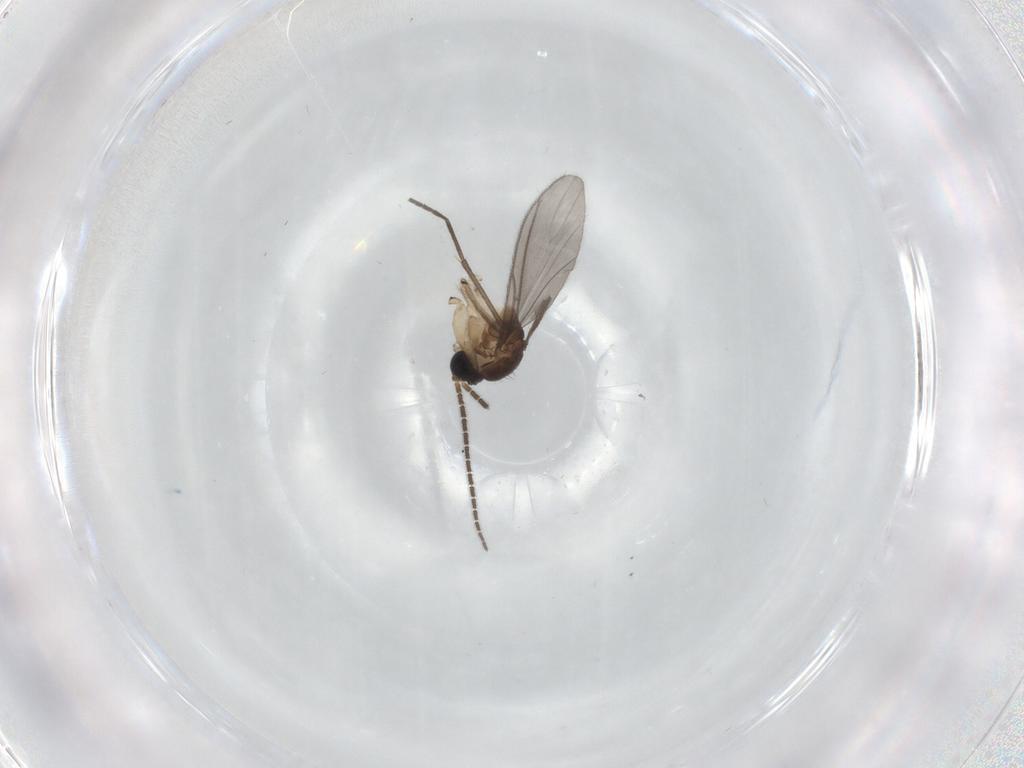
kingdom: Animalia
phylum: Arthropoda
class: Insecta
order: Diptera
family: Sciaridae
